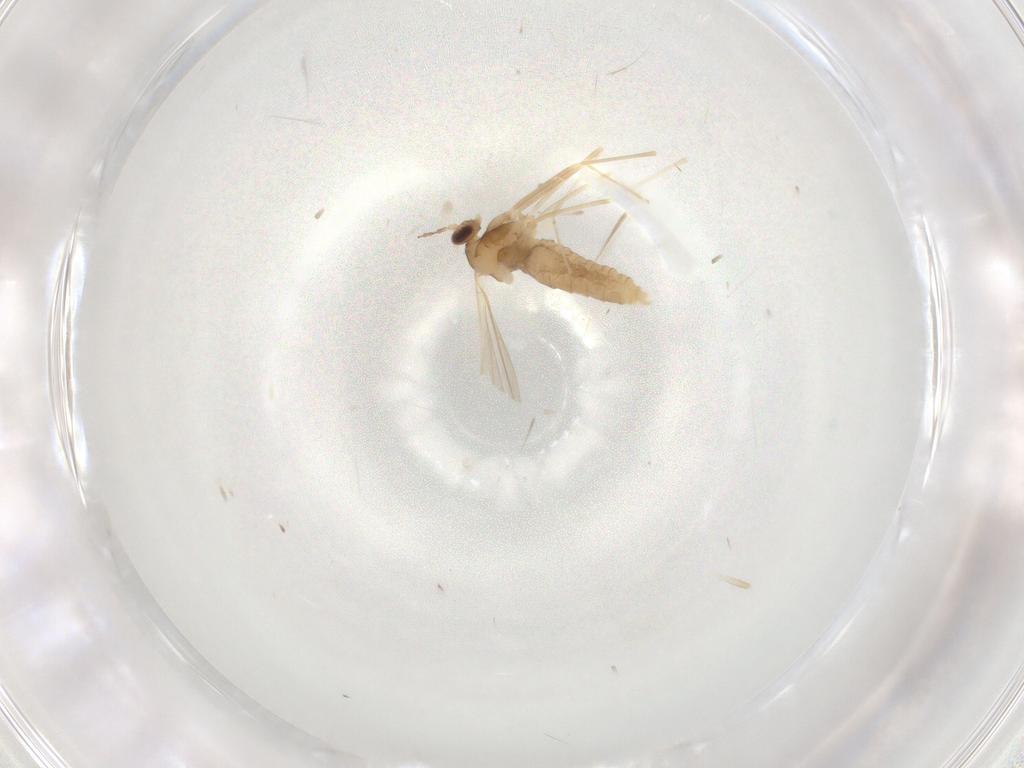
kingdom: Animalia
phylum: Arthropoda
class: Insecta
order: Diptera
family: Cecidomyiidae
